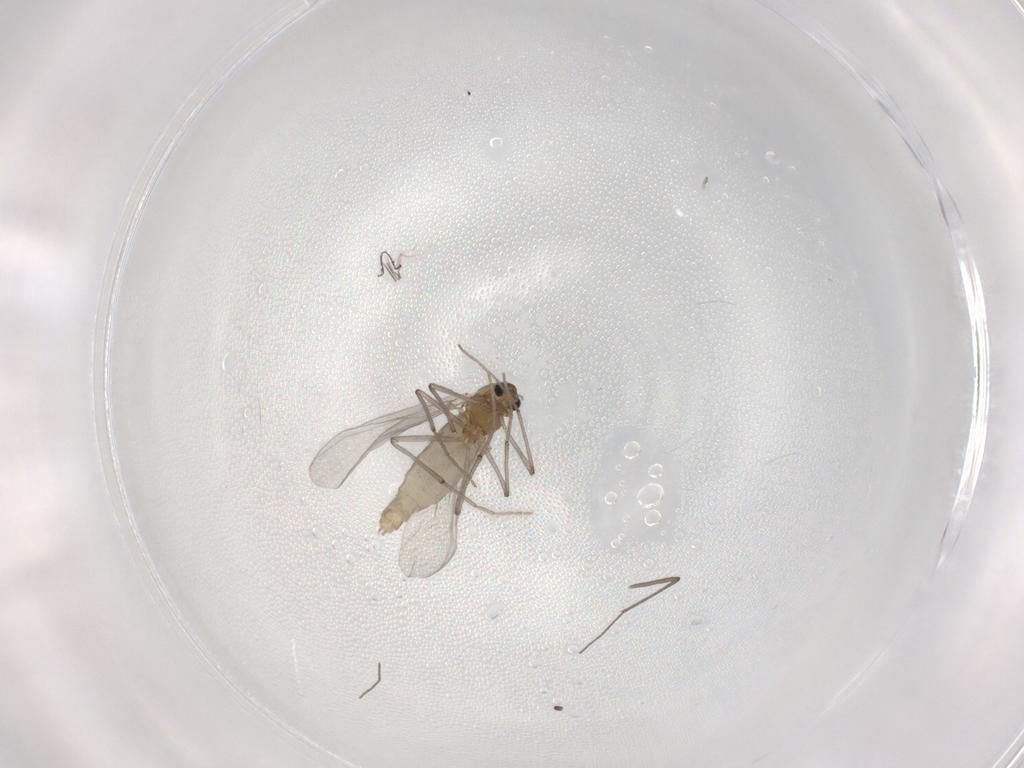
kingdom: Animalia
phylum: Arthropoda
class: Insecta
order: Diptera
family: Chironomidae
